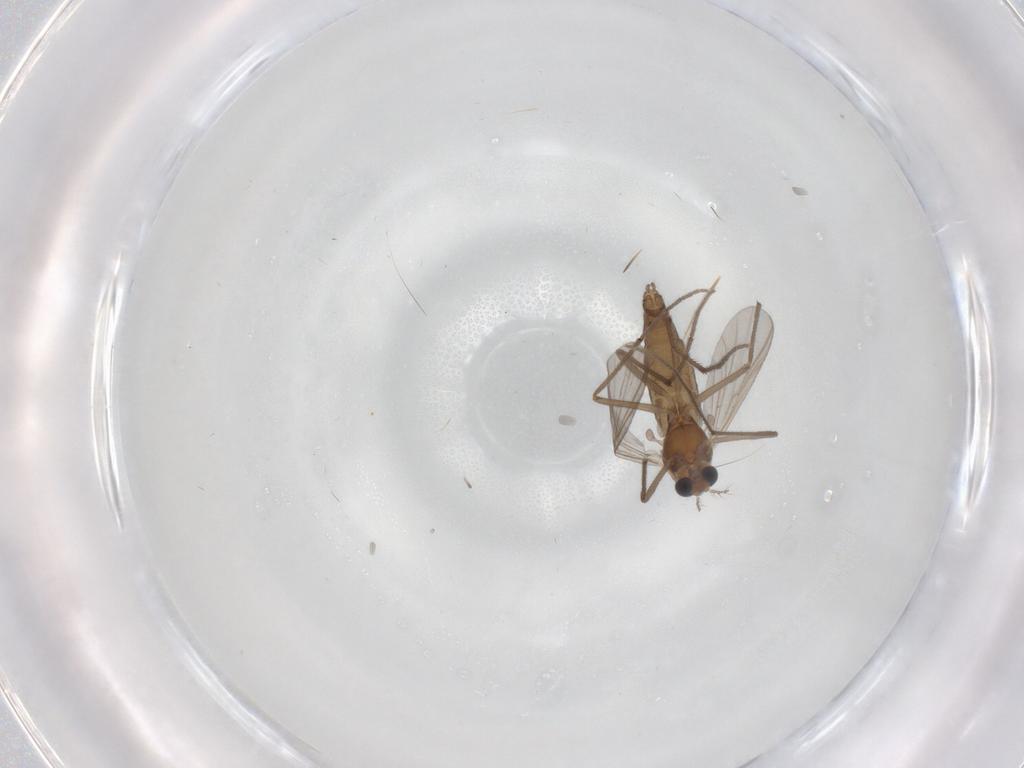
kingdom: Animalia
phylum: Arthropoda
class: Insecta
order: Diptera
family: Chironomidae
